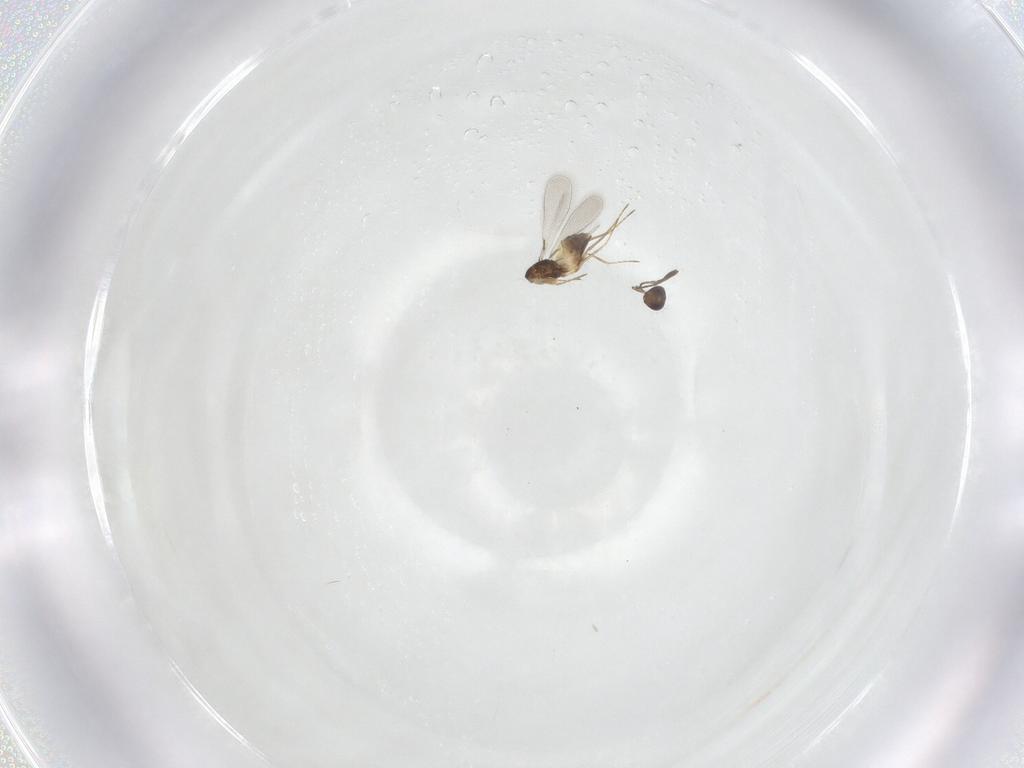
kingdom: Animalia
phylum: Arthropoda
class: Insecta
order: Hymenoptera
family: Mymaridae
